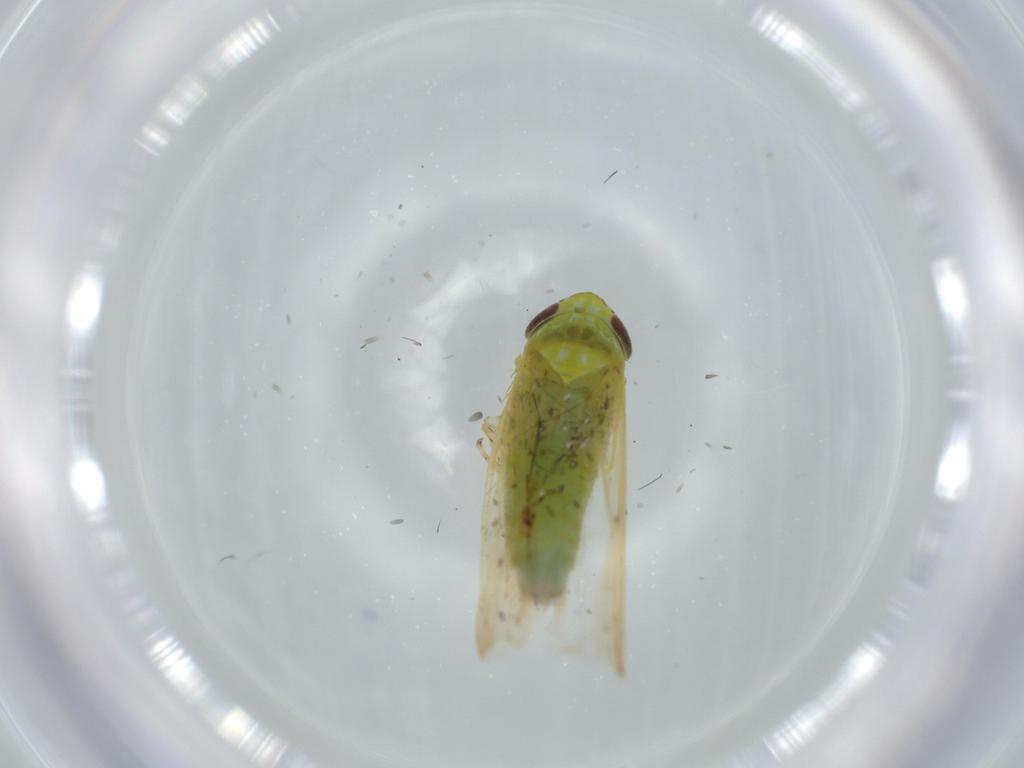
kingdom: Animalia
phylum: Arthropoda
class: Insecta
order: Hemiptera
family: Cicadellidae
